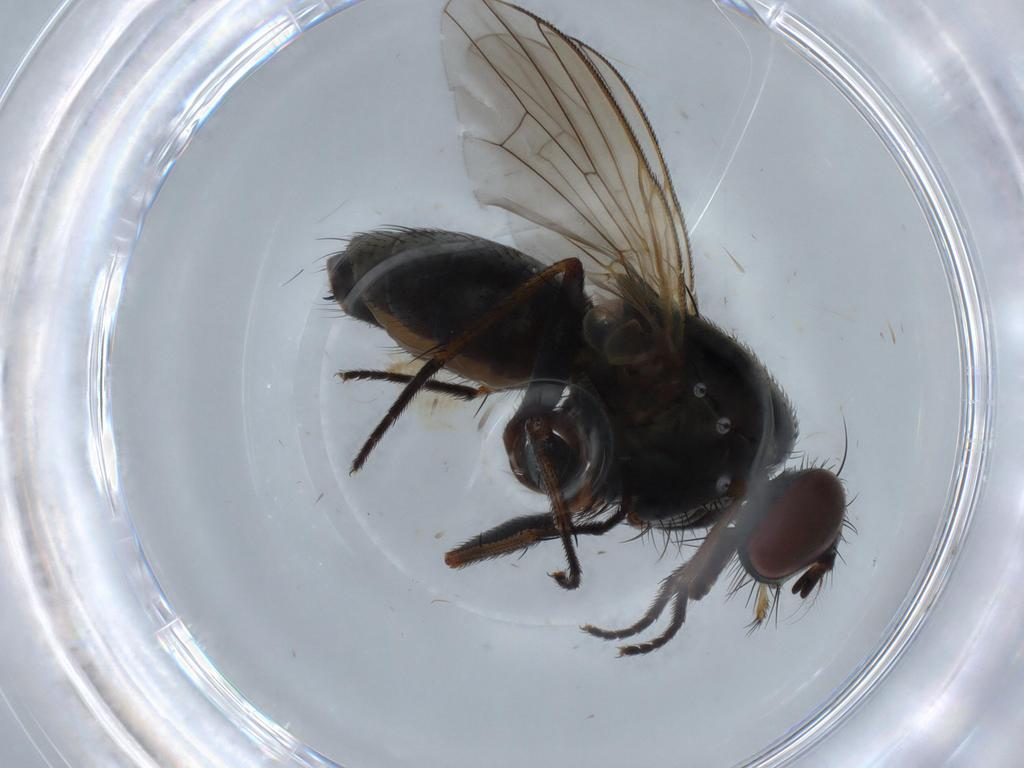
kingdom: Animalia
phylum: Arthropoda
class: Insecta
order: Diptera
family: Muscidae
